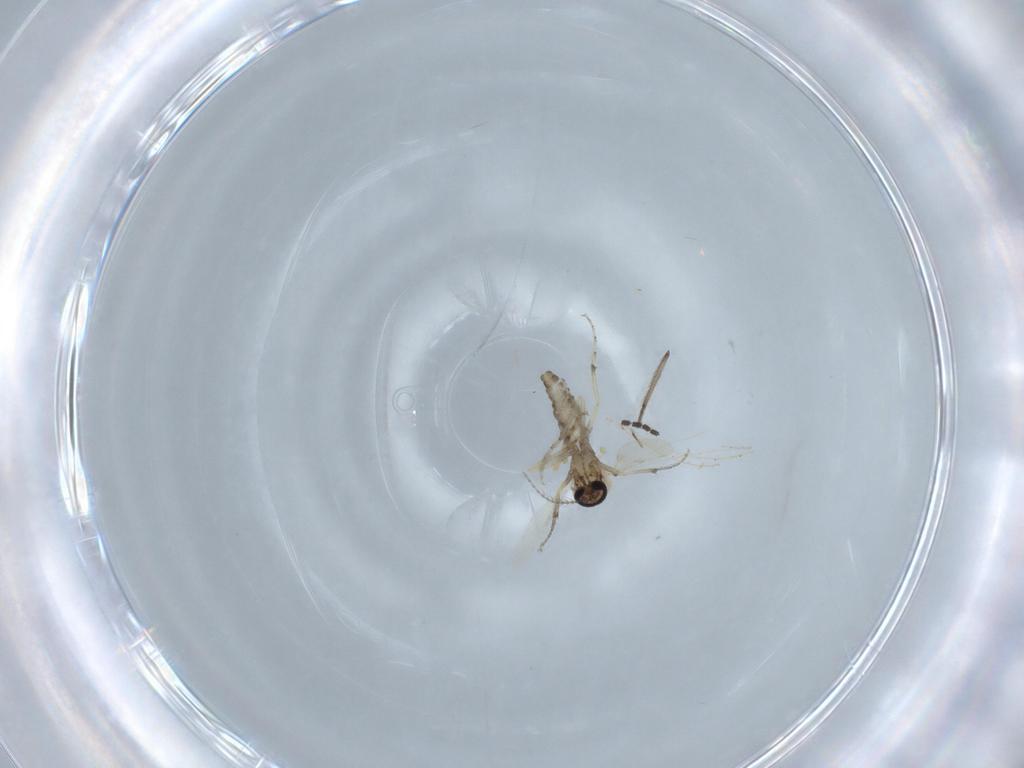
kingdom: Animalia
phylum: Arthropoda
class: Insecta
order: Diptera
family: Ceratopogonidae
